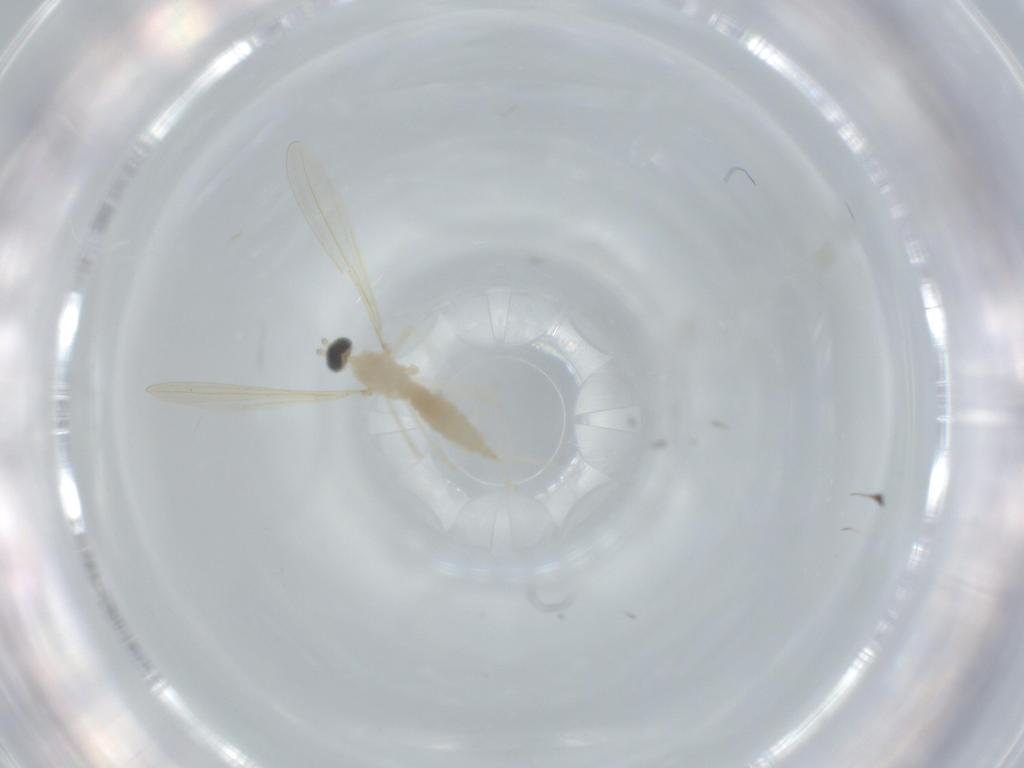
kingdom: Animalia
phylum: Arthropoda
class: Insecta
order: Diptera
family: Cecidomyiidae
